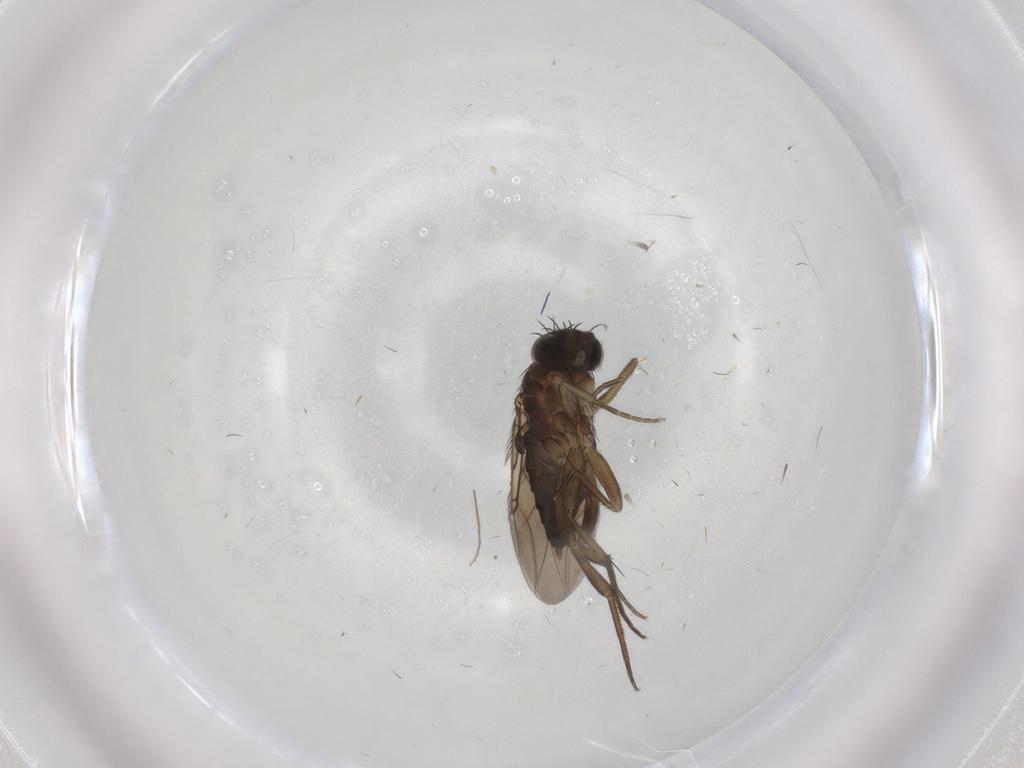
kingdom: Animalia
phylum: Arthropoda
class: Insecta
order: Diptera
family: Phoridae
